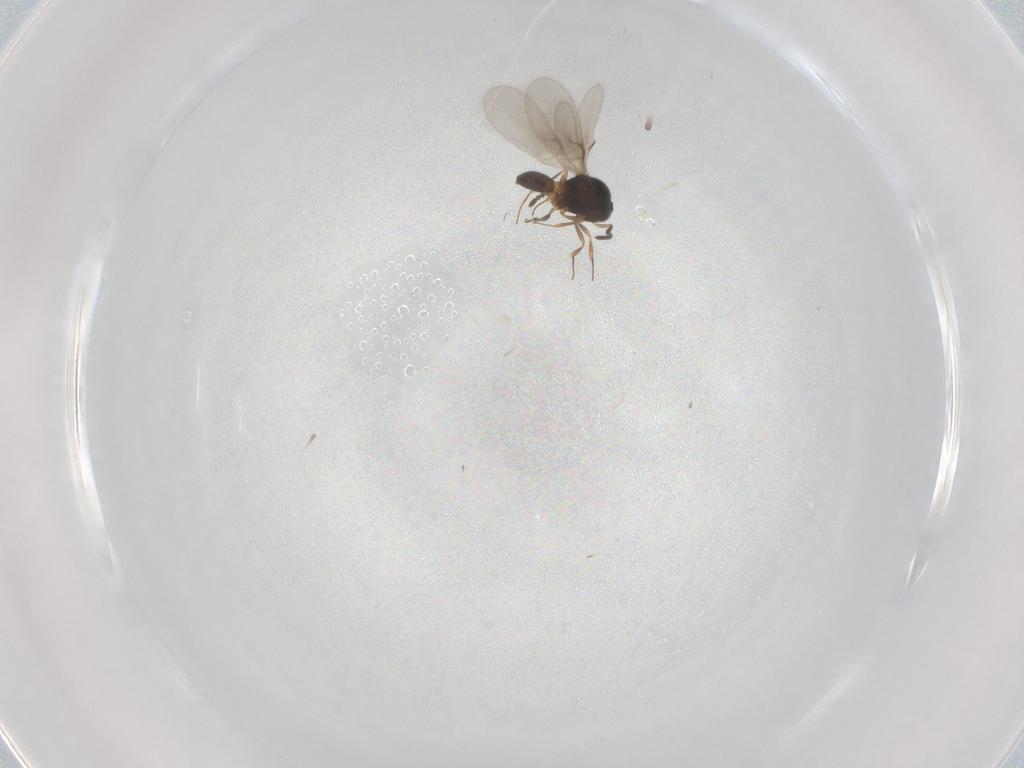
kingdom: Animalia
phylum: Arthropoda
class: Insecta
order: Hymenoptera
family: Scelionidae
